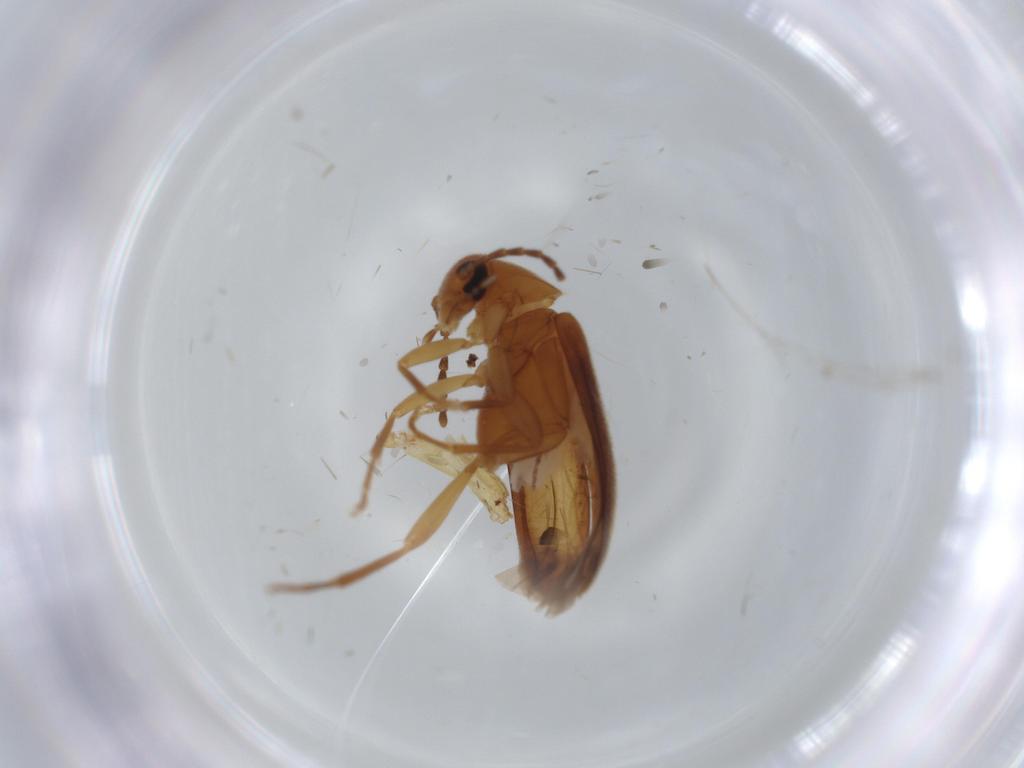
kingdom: Animalia
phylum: Arthropoda
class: Insecta
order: Coleoptera
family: Scraptiidae
